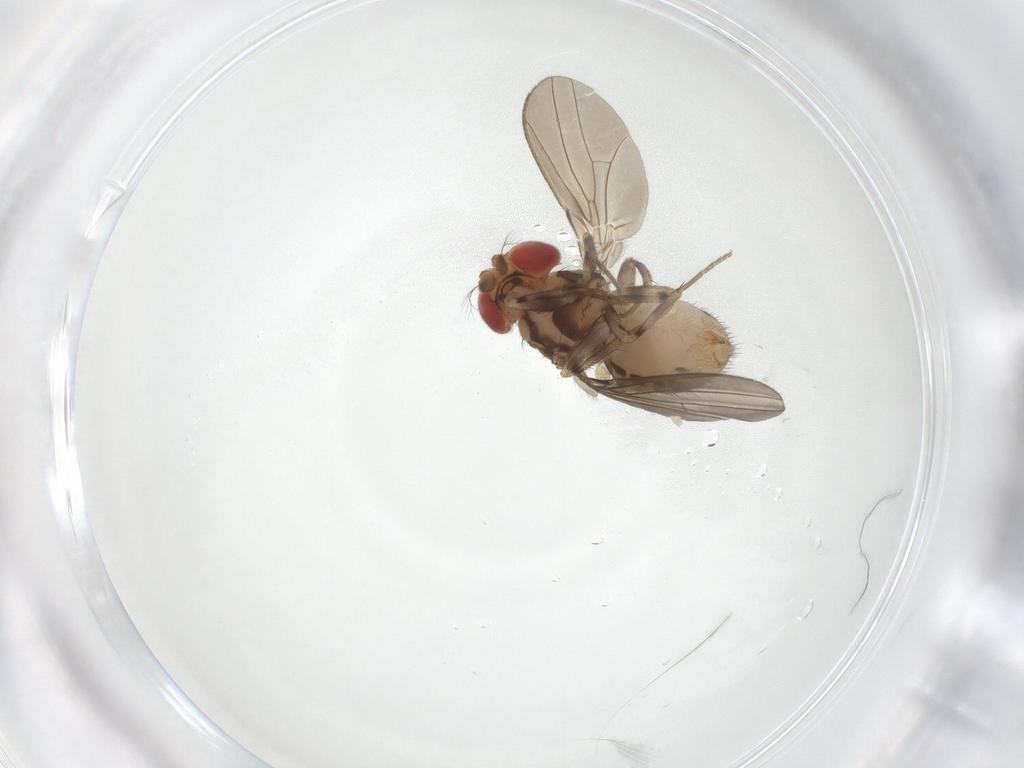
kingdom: Animalia
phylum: Arthropoda
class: Insecta
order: Diptera
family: Drosophilidae
